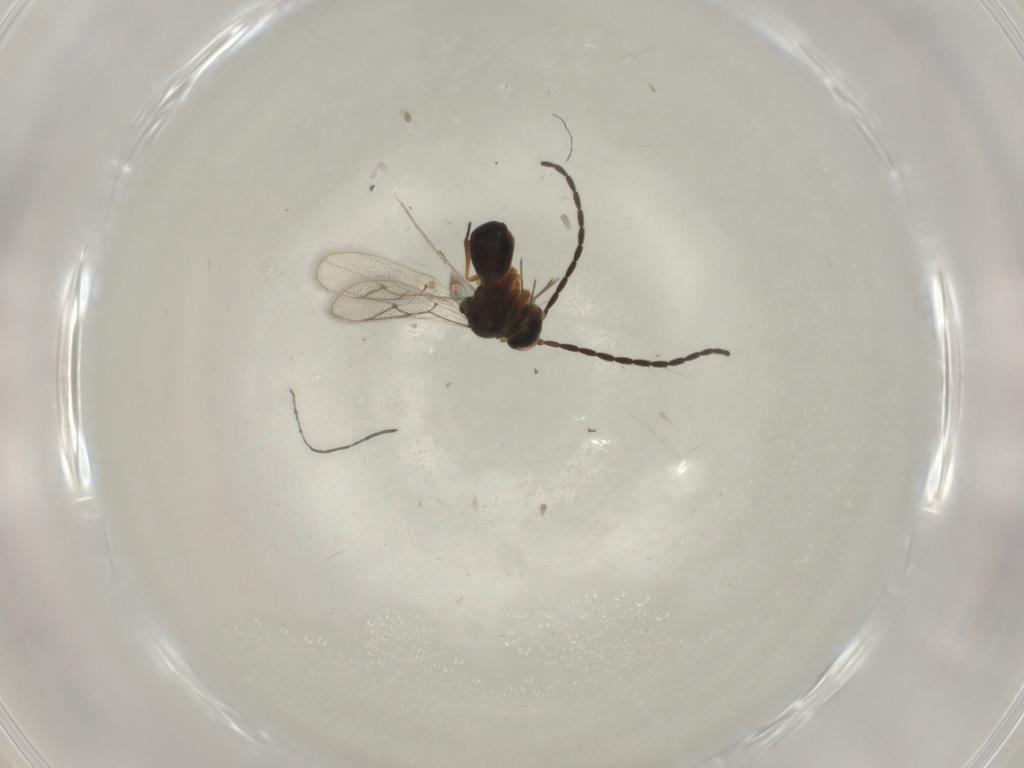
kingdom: Animalia
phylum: Arthropoda
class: Insecta
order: Hymenoptera
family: Figitidae
